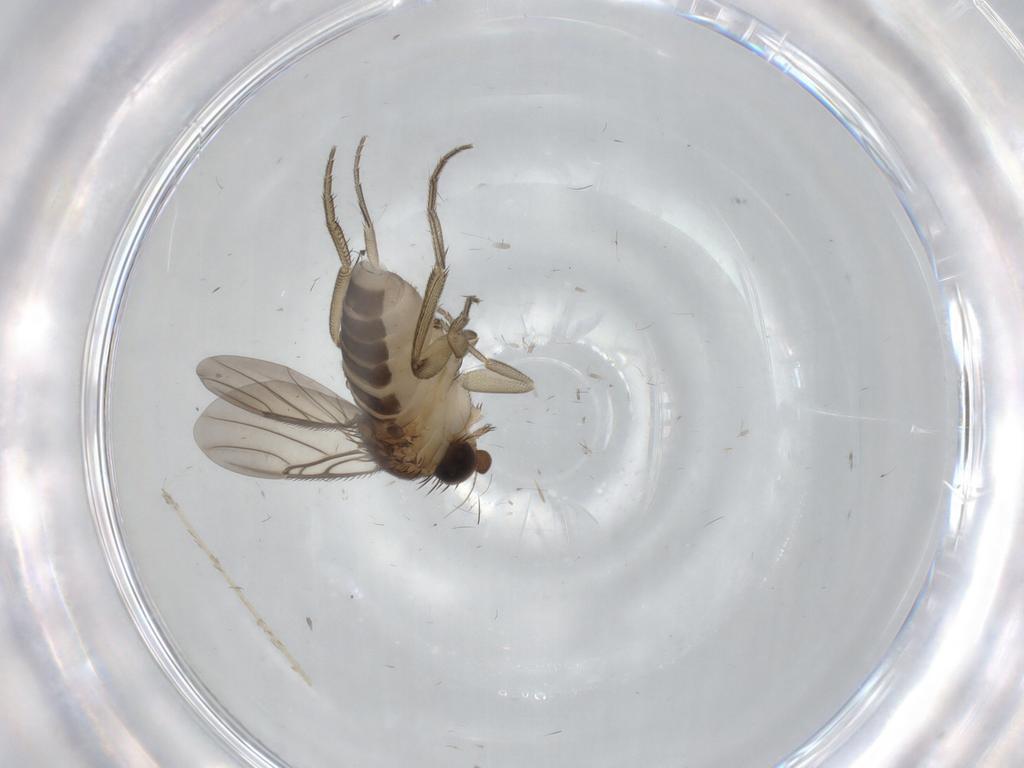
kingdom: Animalia
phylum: Arthropoda
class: Insecta
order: Diptera
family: Phoridae
